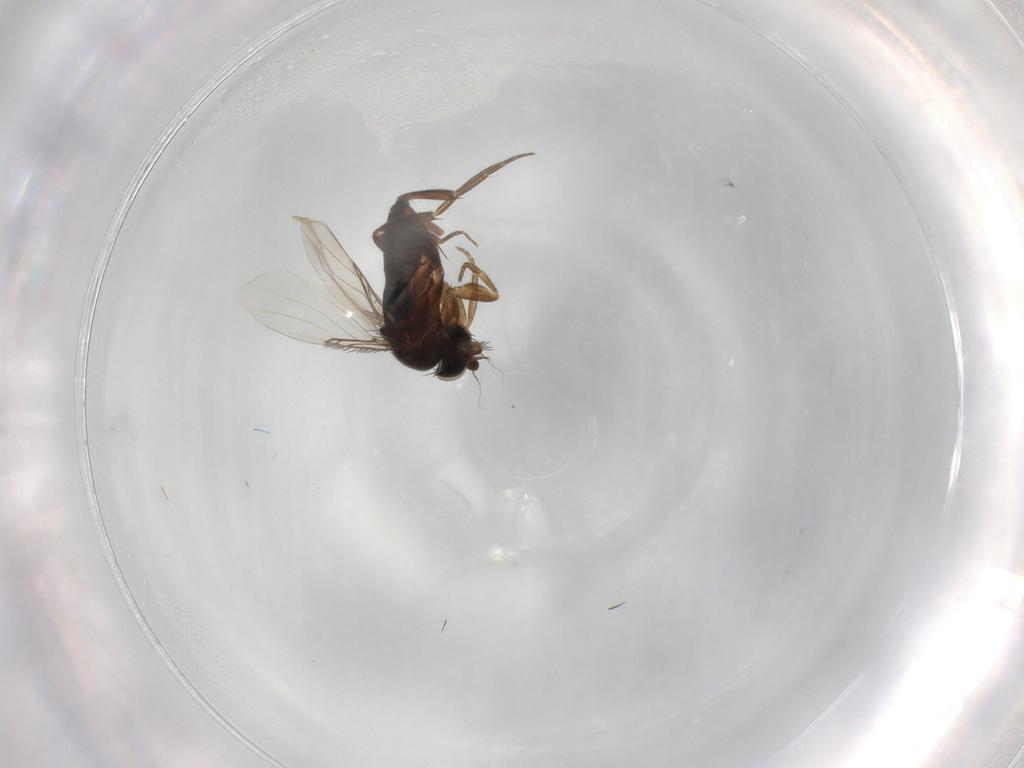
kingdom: Animalia
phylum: Arthropoda
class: Insecta
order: Diptera
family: Phoridae
